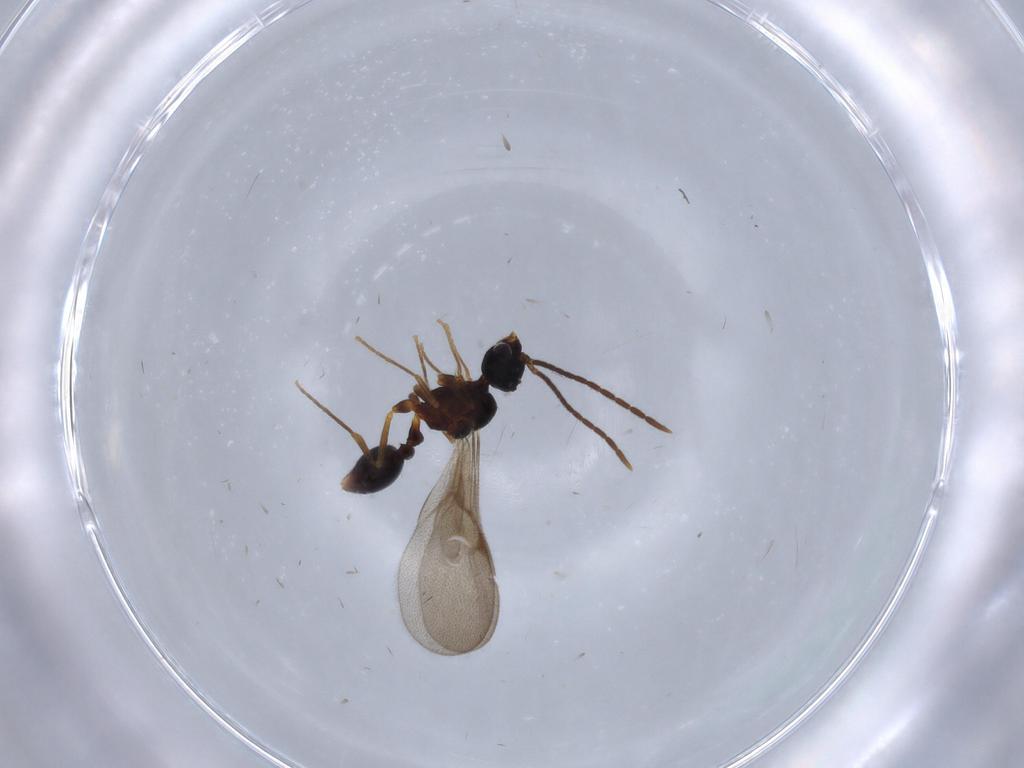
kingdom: Animalia
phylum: Arthropoda
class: Insecta
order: Hymenoptera
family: Formicidae
